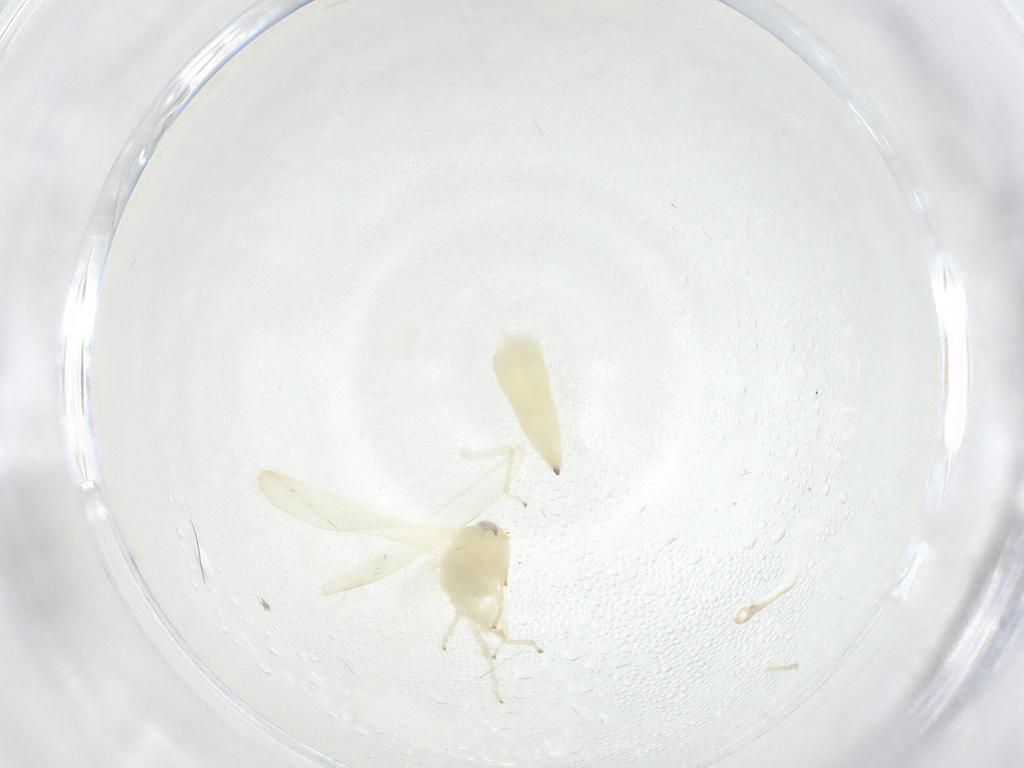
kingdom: Animalia
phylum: Arthropoda
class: Insecta
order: Hemiptera
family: Cicadellidae
